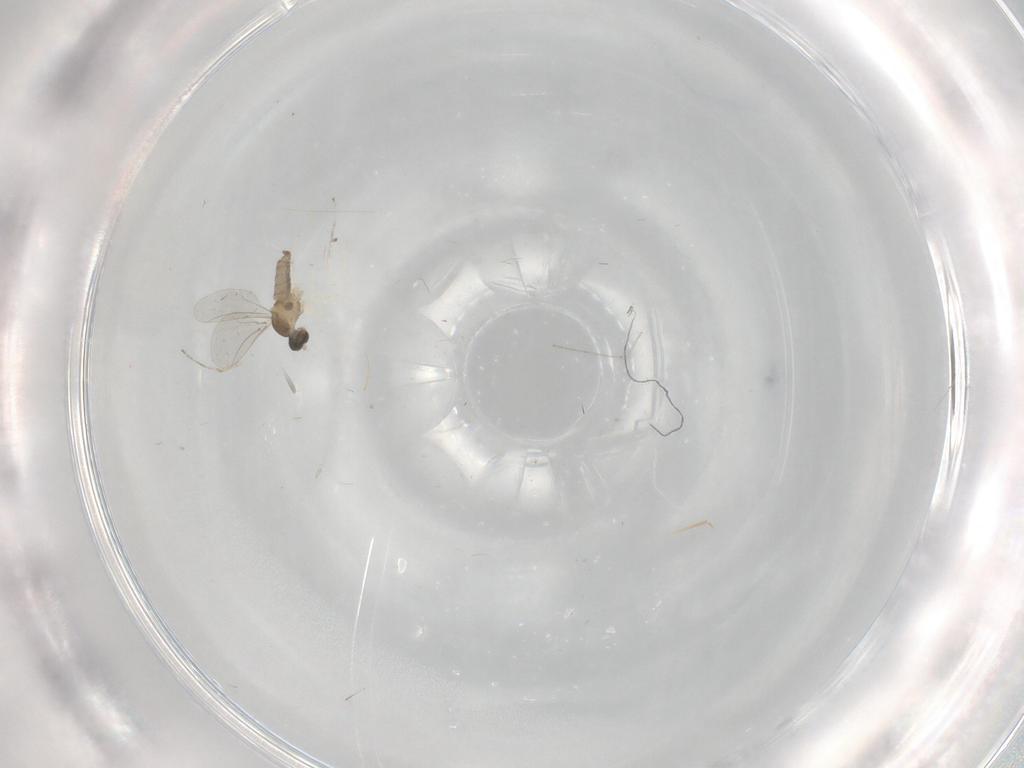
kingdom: Animalia
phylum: Arthropoda
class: Insecta
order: Diptera
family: Cecidomyiidae
